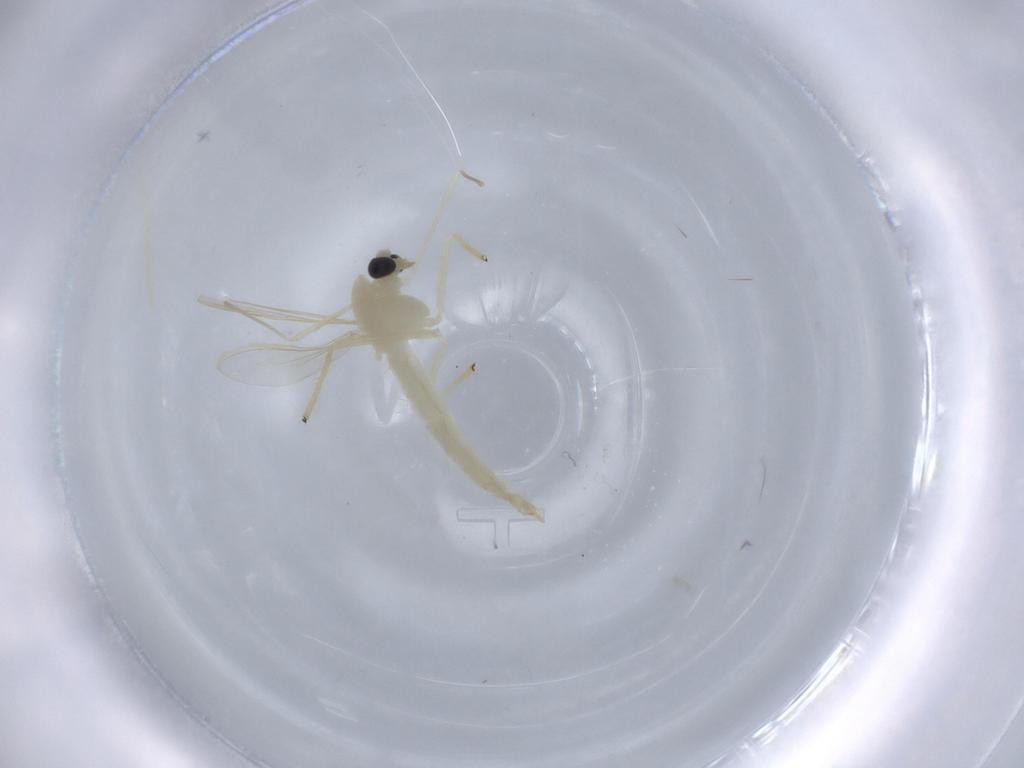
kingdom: Animalia
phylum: Arthropoda
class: Insecta
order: Diptera
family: Chironomidae
